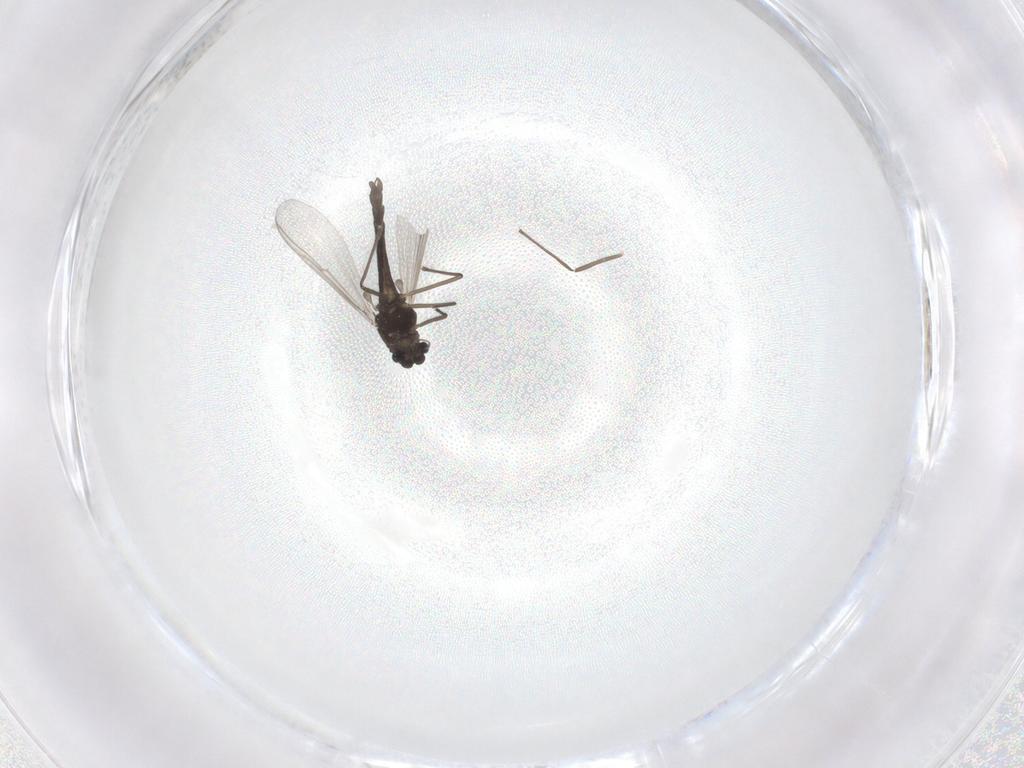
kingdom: Animalia
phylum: Arthropoda
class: Insecta
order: Diptera
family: Chironomidae
